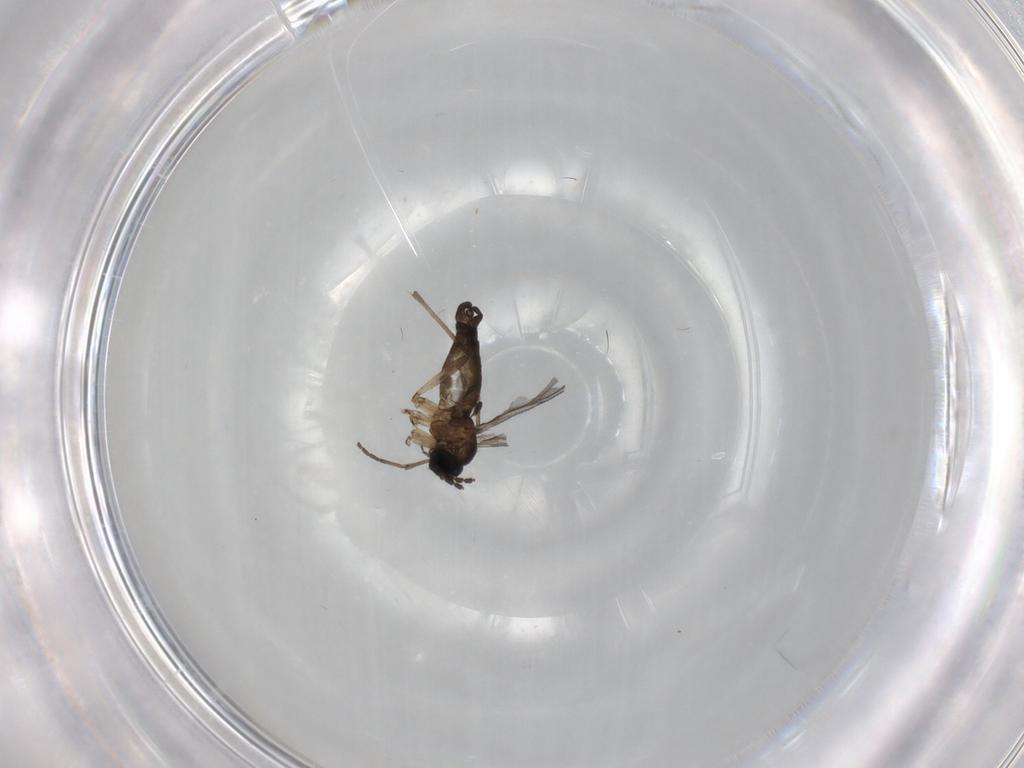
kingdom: Animalia
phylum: Arthropoda
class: Insecta
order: Diptera
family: Sciaridae
